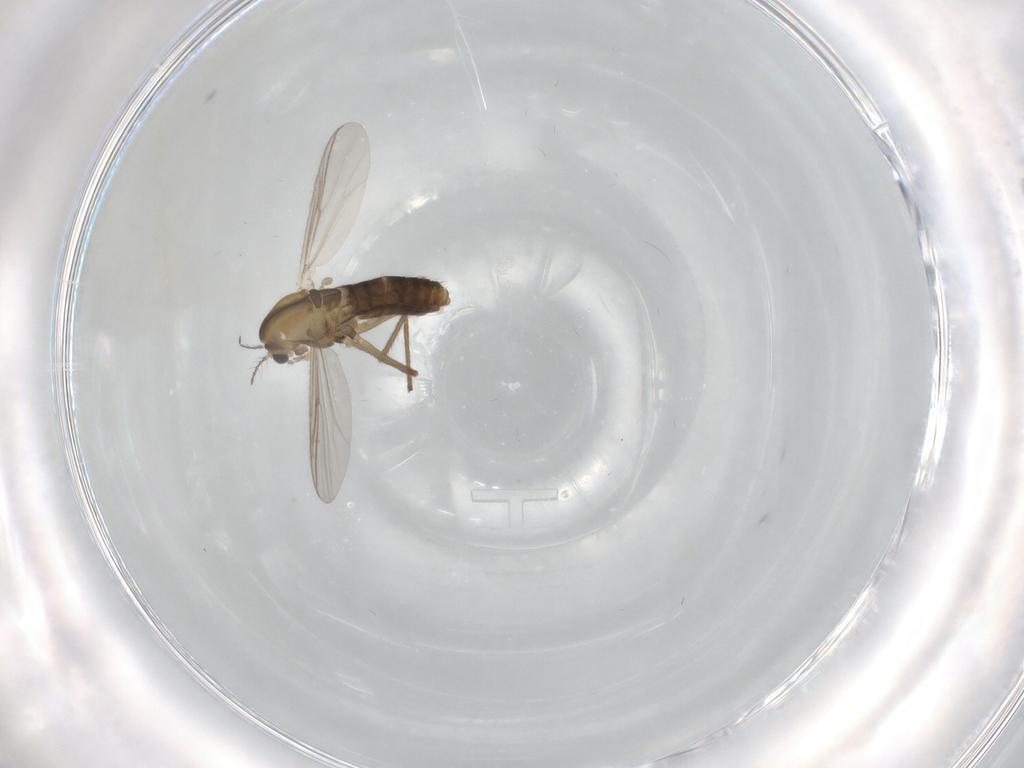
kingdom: Animalia
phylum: Arthropoda
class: Insecta
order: Diptera
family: Chironomidae
